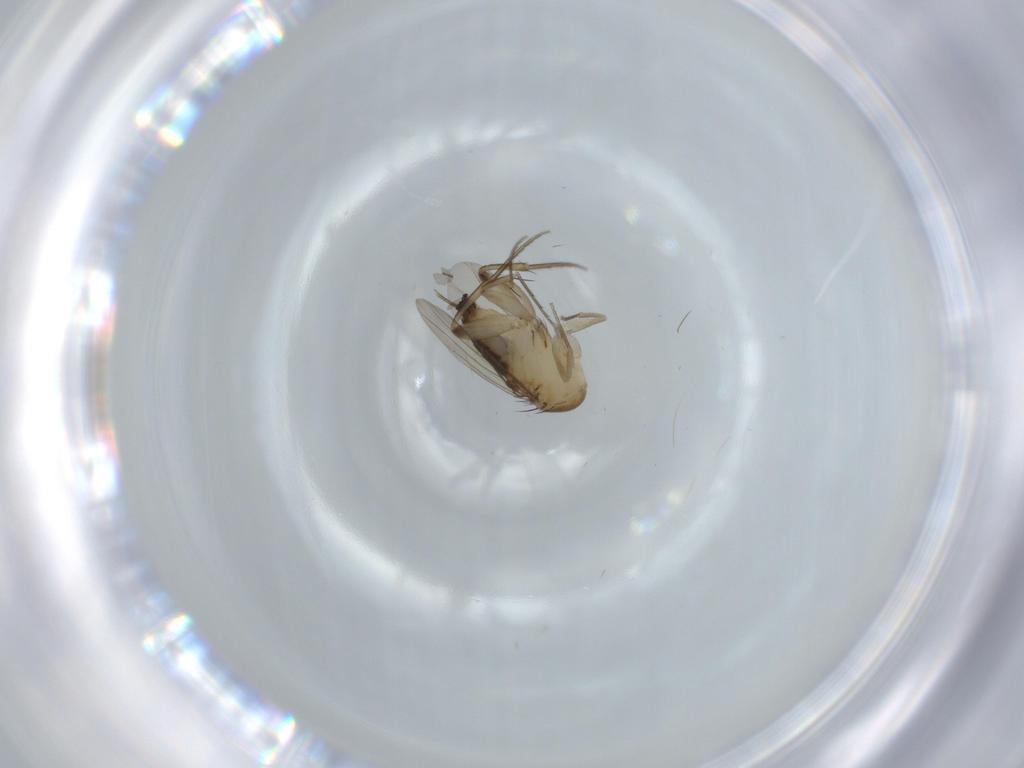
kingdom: Animalia
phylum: Arthropoda
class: Insecta
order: Diptera
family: Phoridae
